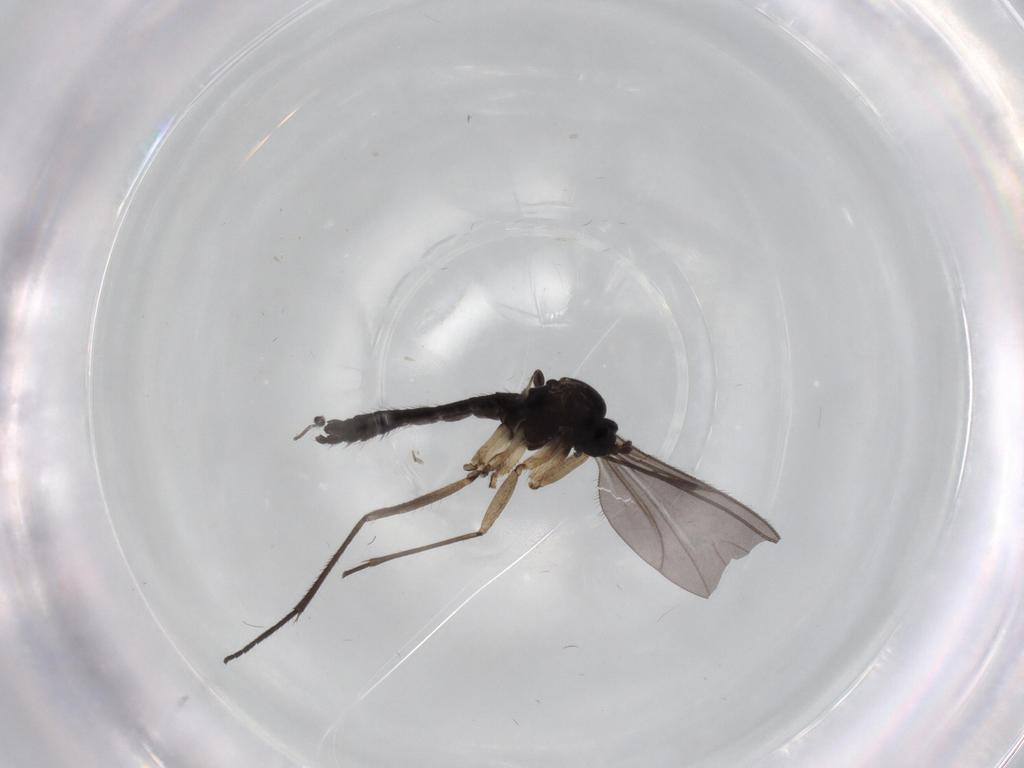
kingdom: Animalia
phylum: Arthropoda
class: Insecta
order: Diptera
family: Sciaridae
